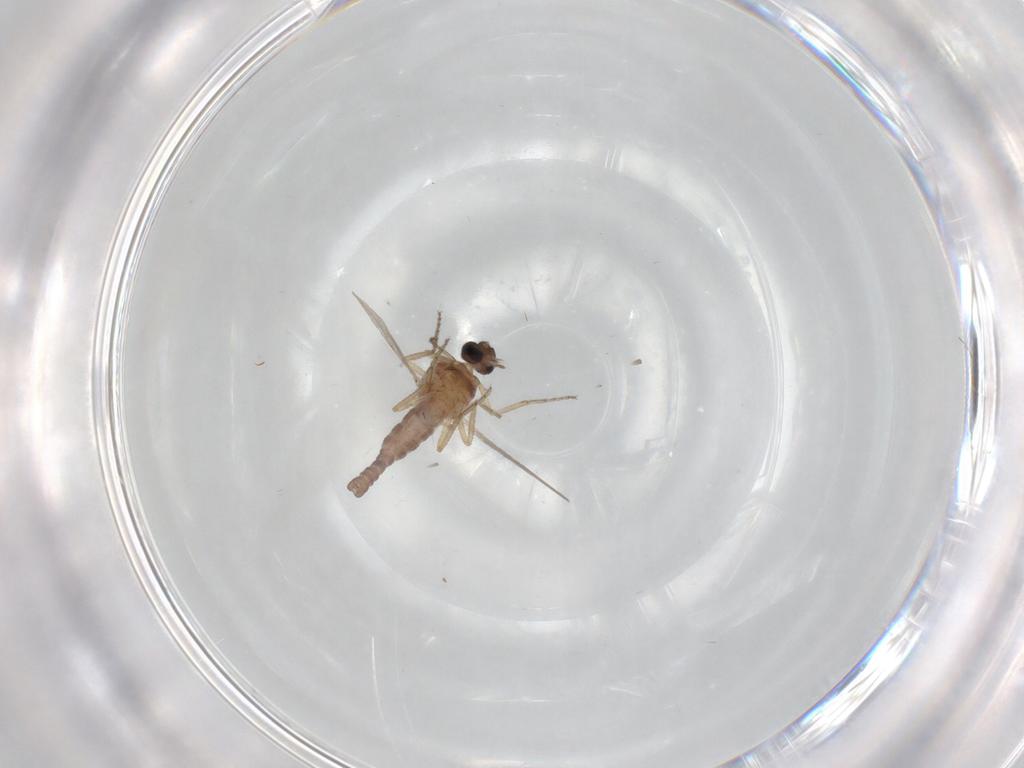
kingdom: Animalia
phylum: Arthropoda
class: Insecta
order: Diptera
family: Ceratopogonidae
